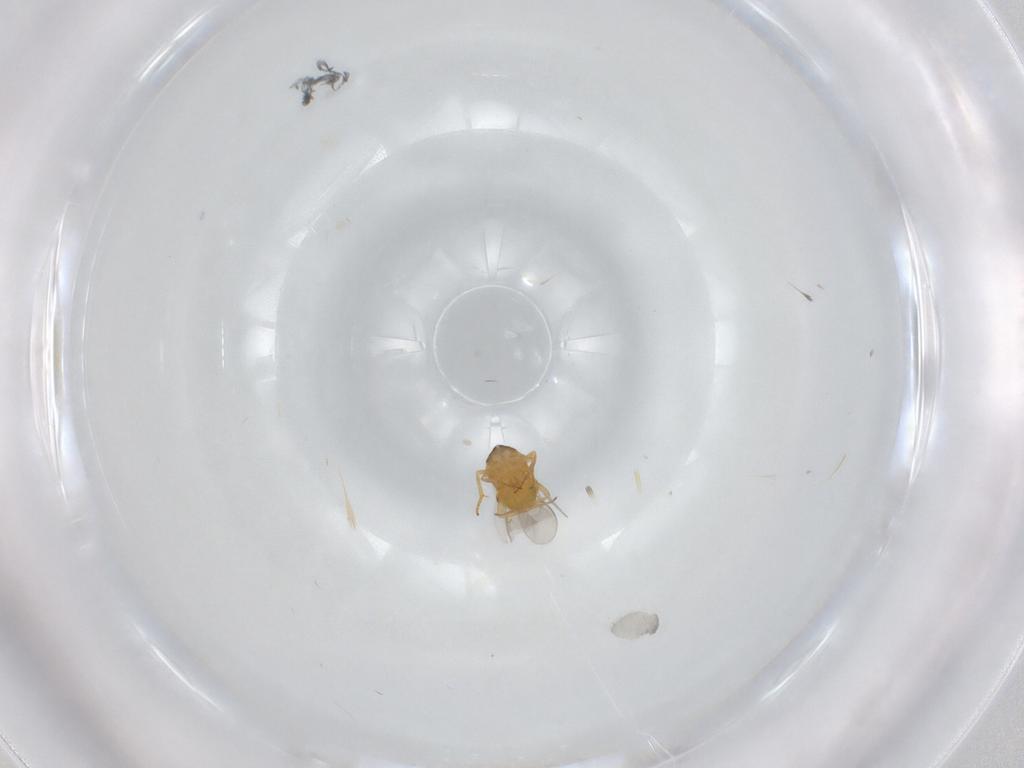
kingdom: Animalia
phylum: Arthropoda
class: Insecta
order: Hymenoptera
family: Encyrtidae
